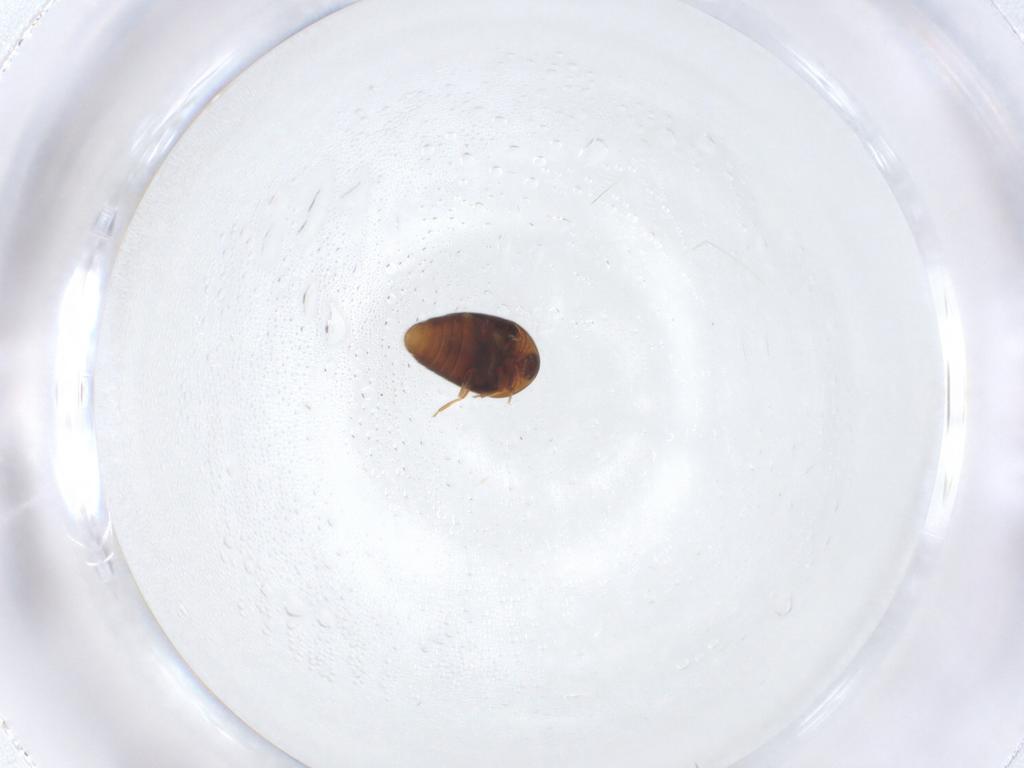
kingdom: Animalia
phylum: Arthropoda
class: Insecta
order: Coleoptera
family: Corylophidae
